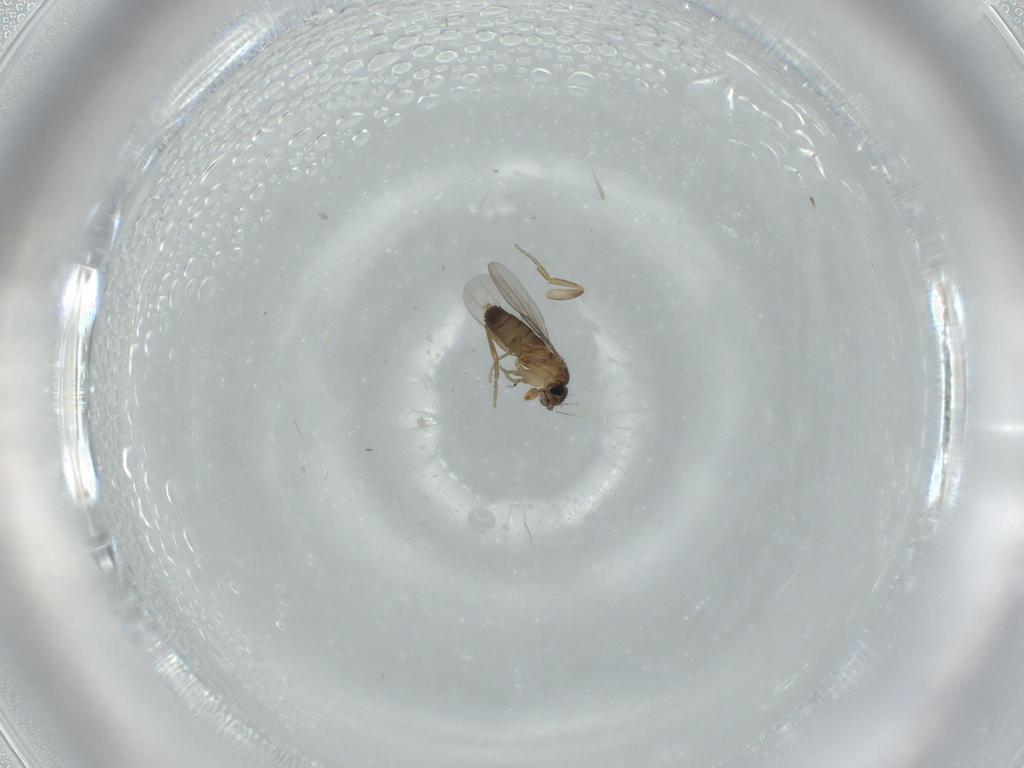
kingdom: Animalia
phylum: Arthropoda
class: Insecta
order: Diptera
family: Phoridae
